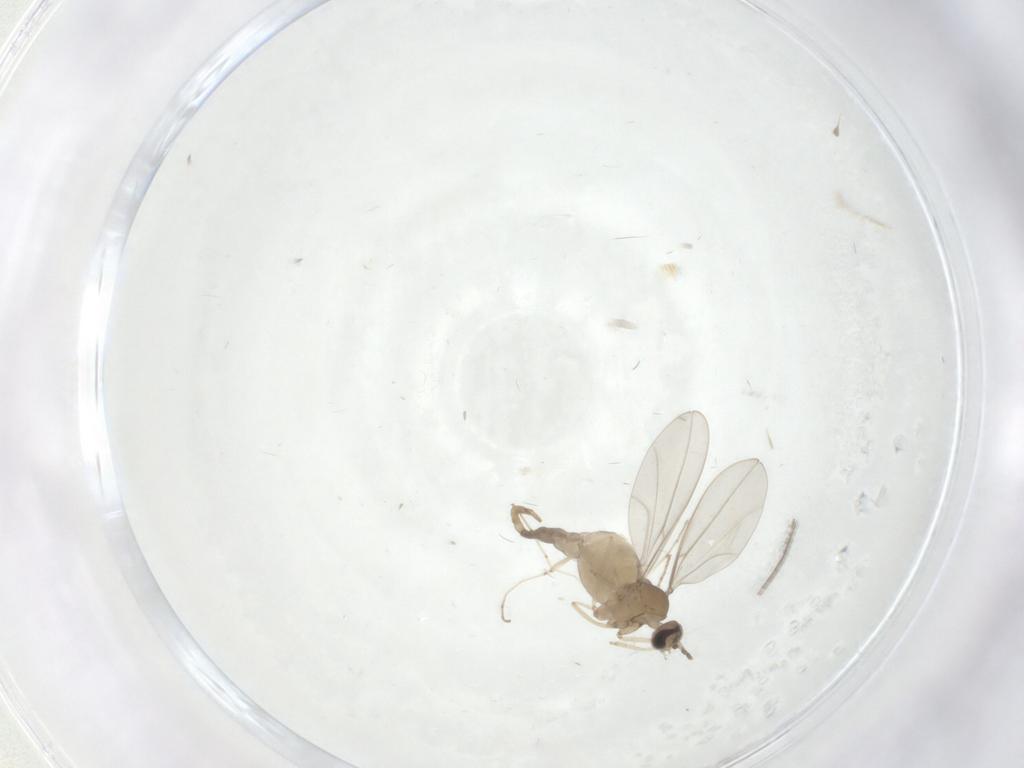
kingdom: Animalia
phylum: Arthropoda
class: Insecta
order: Diptera
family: Cecidomyiidae
